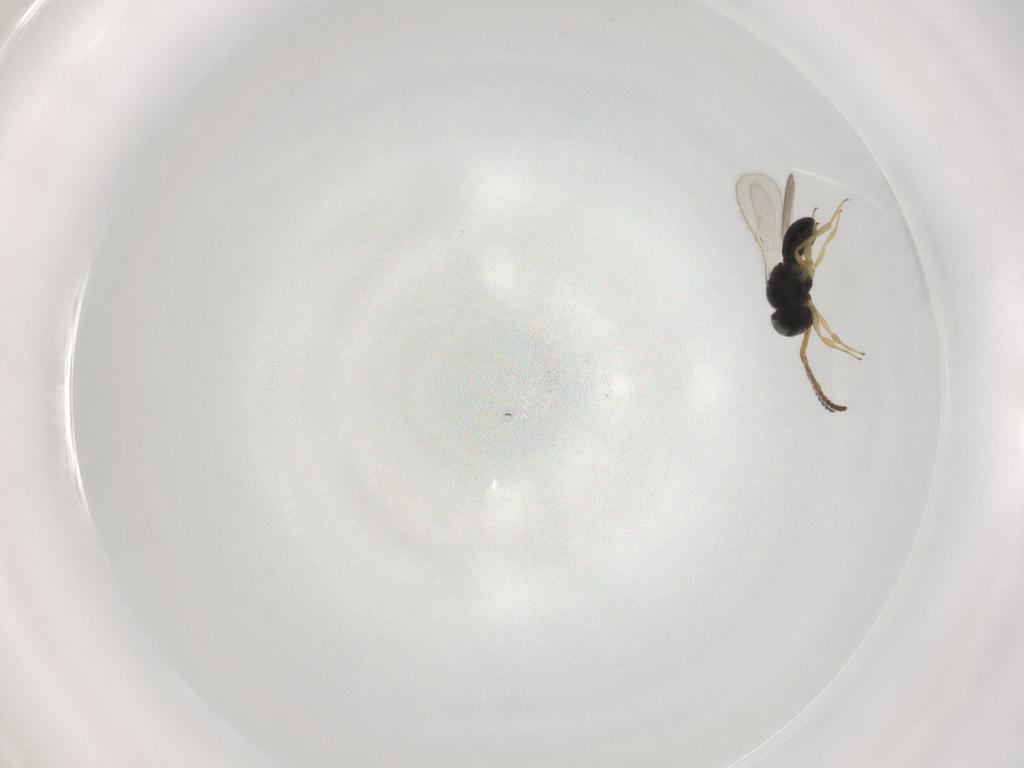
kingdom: Animalia
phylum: Arthropoda
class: Insecta
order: Hymenoptera
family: Scelionidae
